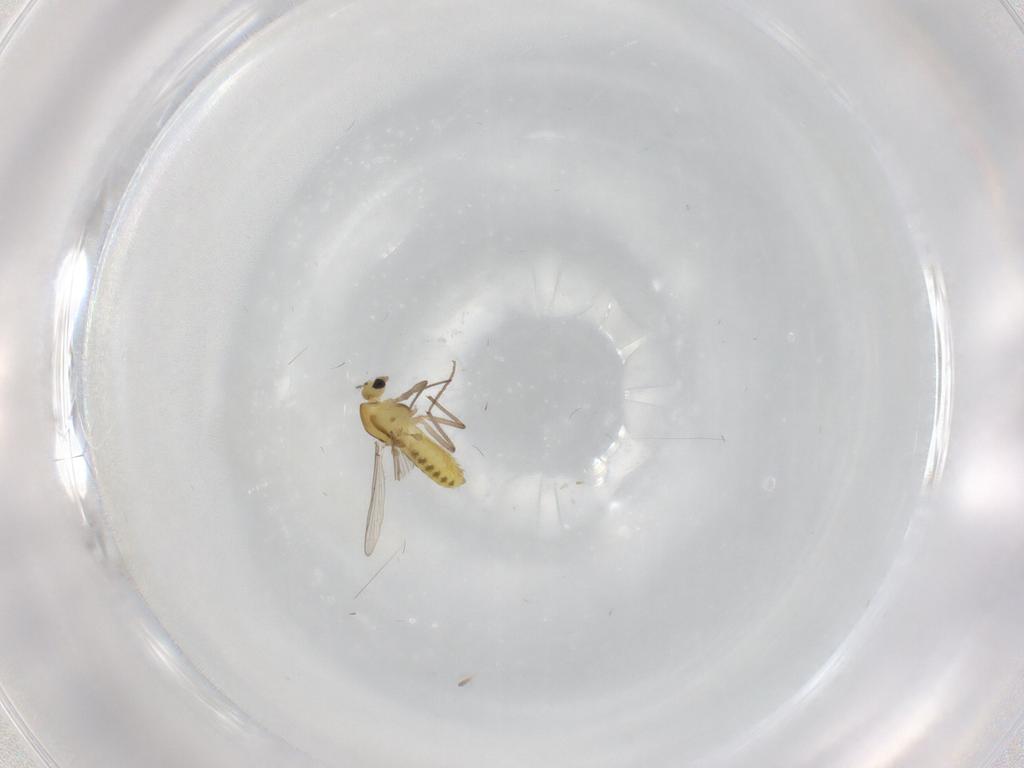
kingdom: Animalia
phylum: Arthropoda
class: Insecta
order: Diptera
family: Chironomidae
